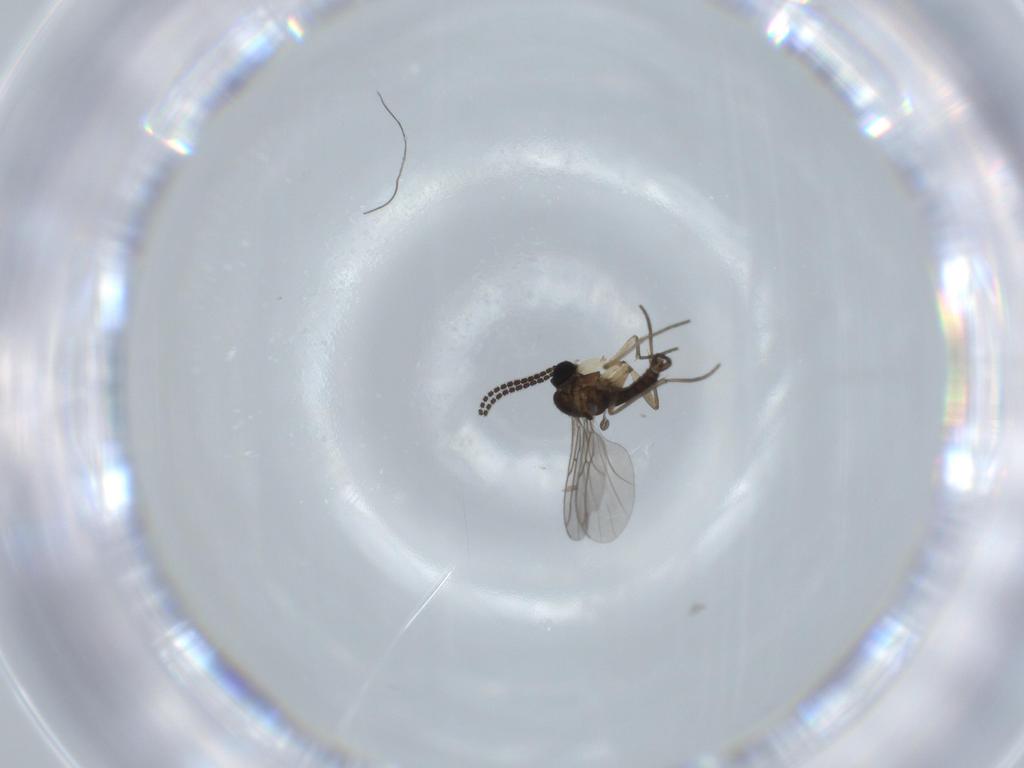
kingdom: Animalia
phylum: Arthropoda
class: Insecta
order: Diptera
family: Sciaridae
